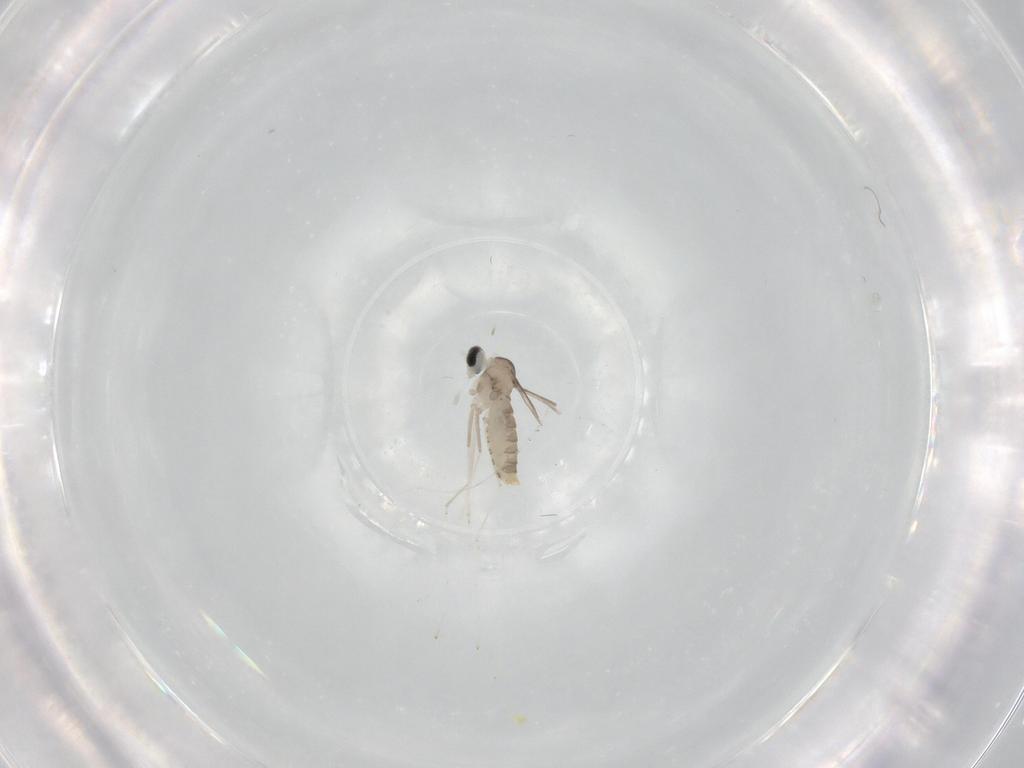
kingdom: Animalia
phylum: Arthropoda
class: Insecta
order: Diptera
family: Cecidomyiidae
